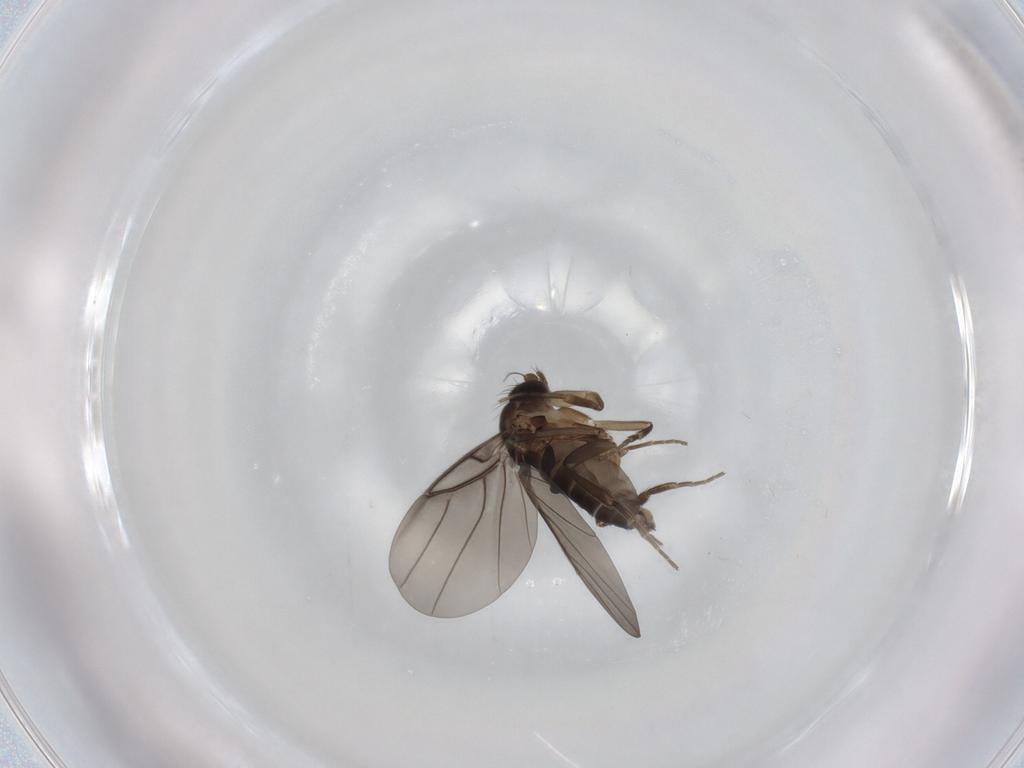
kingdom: Animalia
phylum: Arthropoda
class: Insecta
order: Diptera
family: Phoridae
